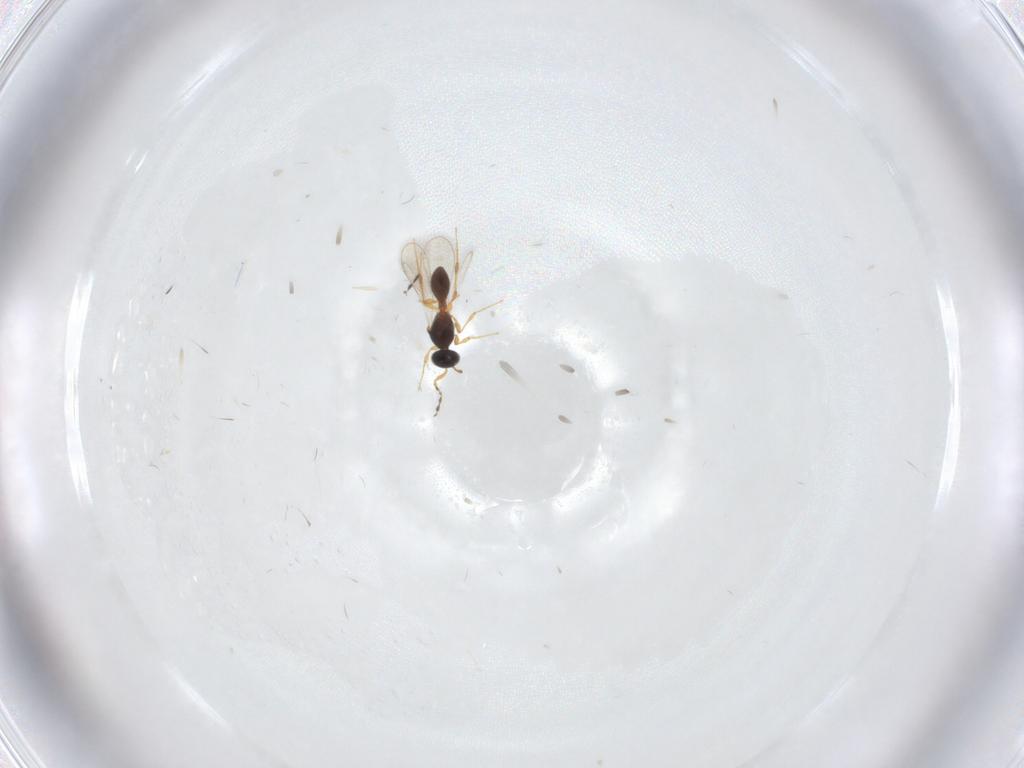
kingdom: Animalia
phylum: Arthropoda
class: Insecta
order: Hymenoptera
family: Platygastridae
